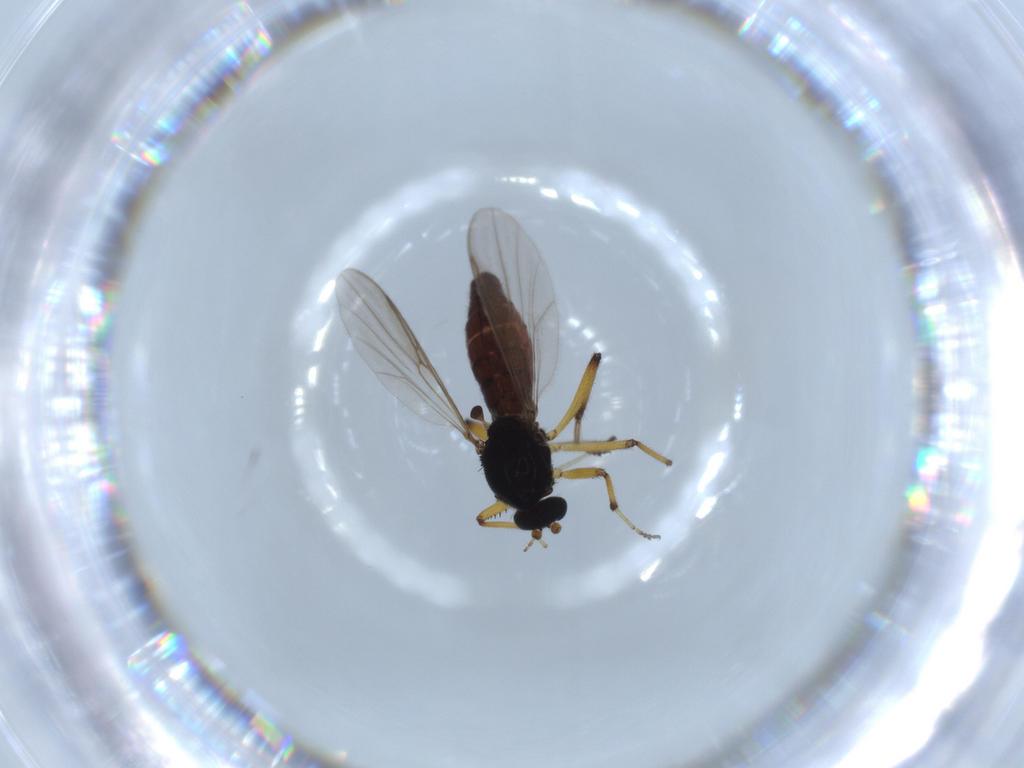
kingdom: Animalia
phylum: Arthropoda
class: Insecta
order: Diptera
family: Ceratopogonidae
